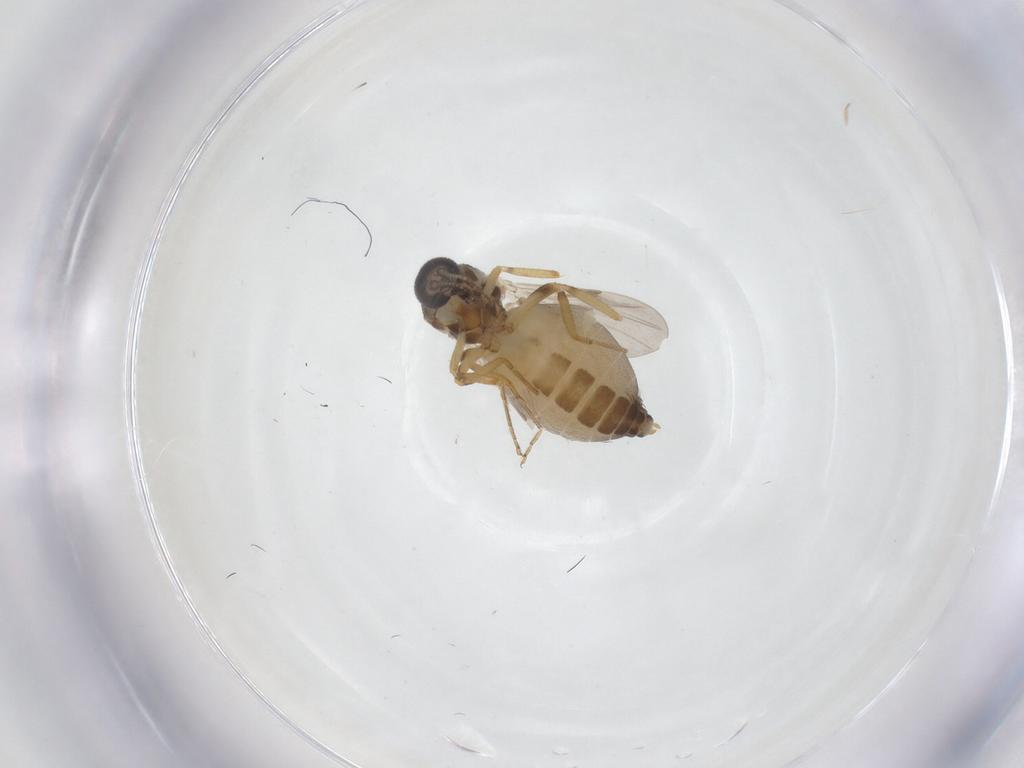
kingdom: Animalia
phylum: Arthropoda
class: Insecta
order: Diptera
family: Ceratopogonidae
